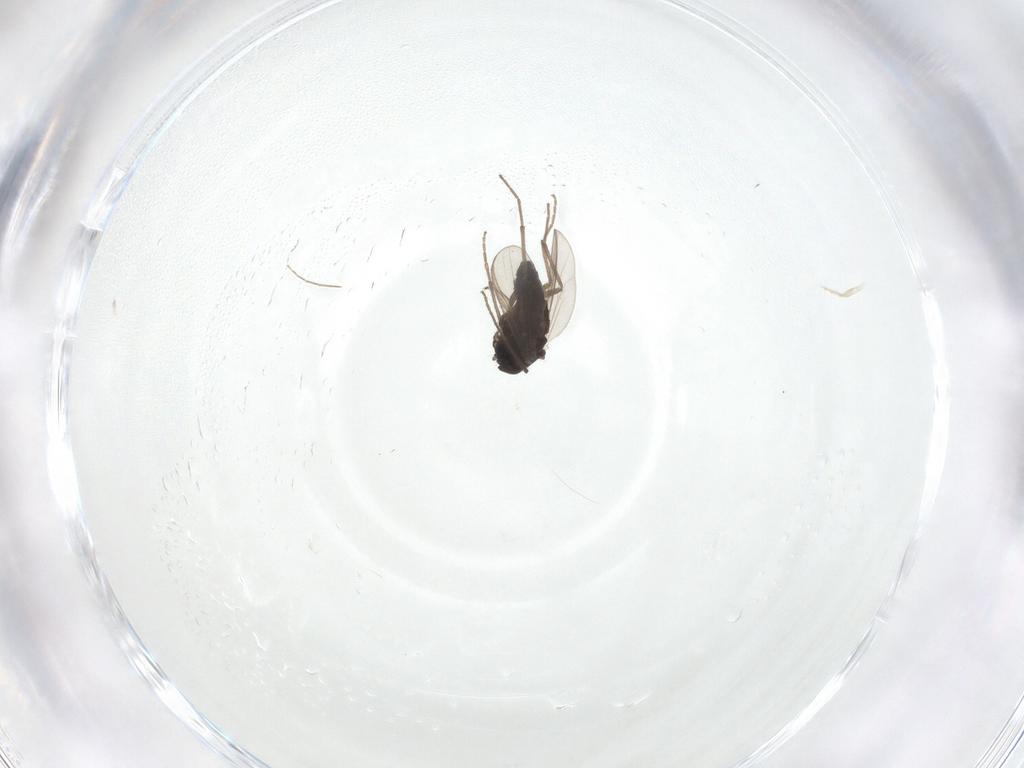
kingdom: Animalia
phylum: Arthropoda
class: Insecta
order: Diptera
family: Chironomidae
